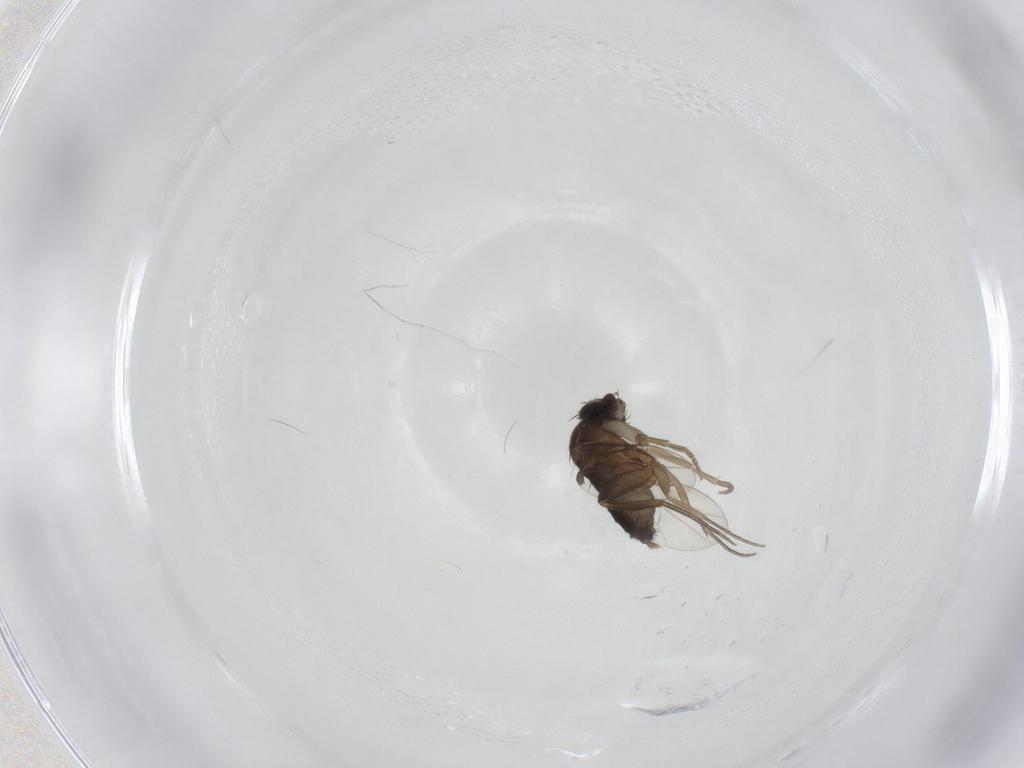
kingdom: Animalia
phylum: Arthropoda
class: Insecta
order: Diptera
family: Phoridae
